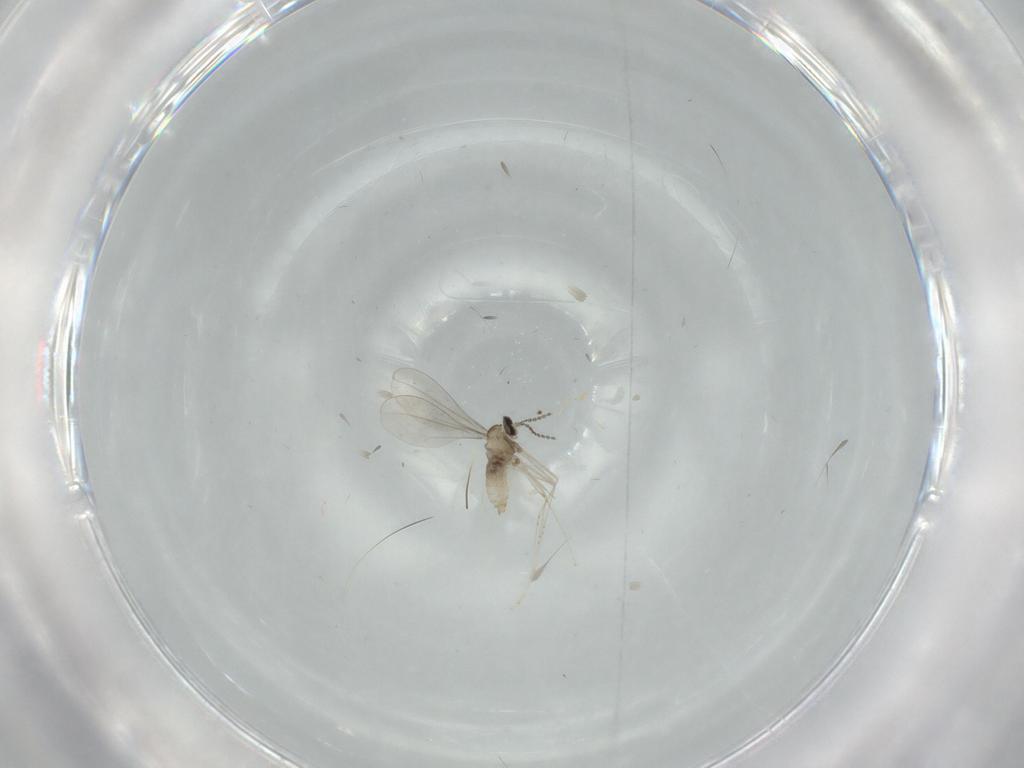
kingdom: Animalia
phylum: Arthropoda
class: Insecta
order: Diptera
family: Cecidomyiidae
